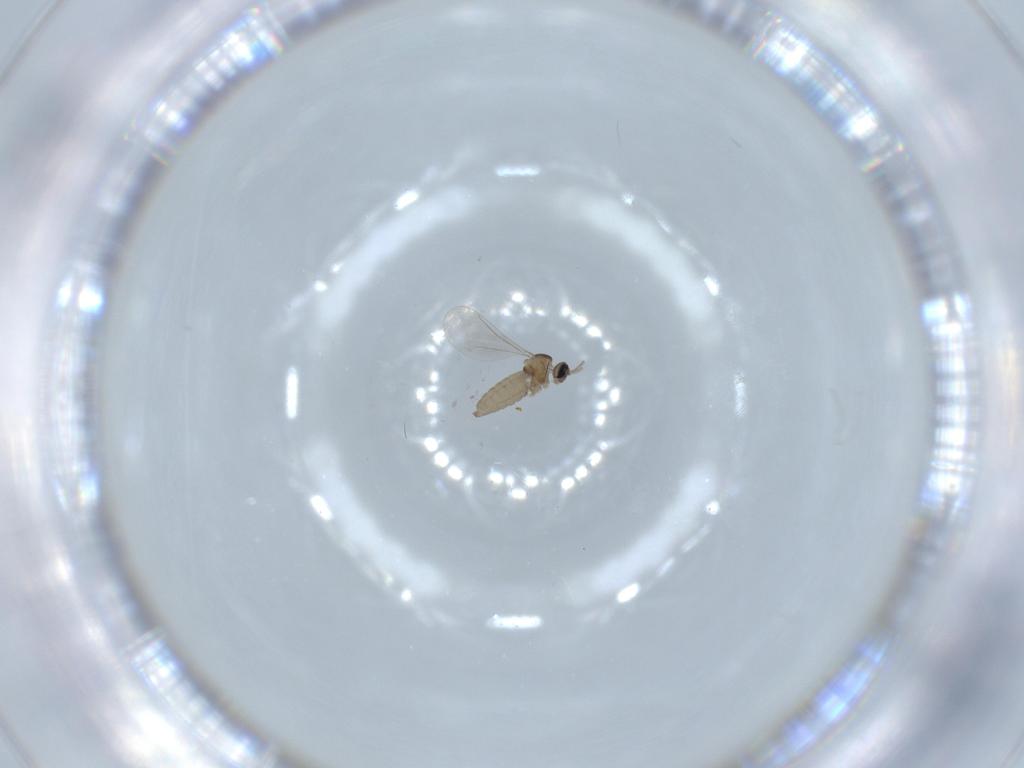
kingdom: Animalia
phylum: Arthropoda
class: Insecta
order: Diptera
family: Cecidomyiidae
